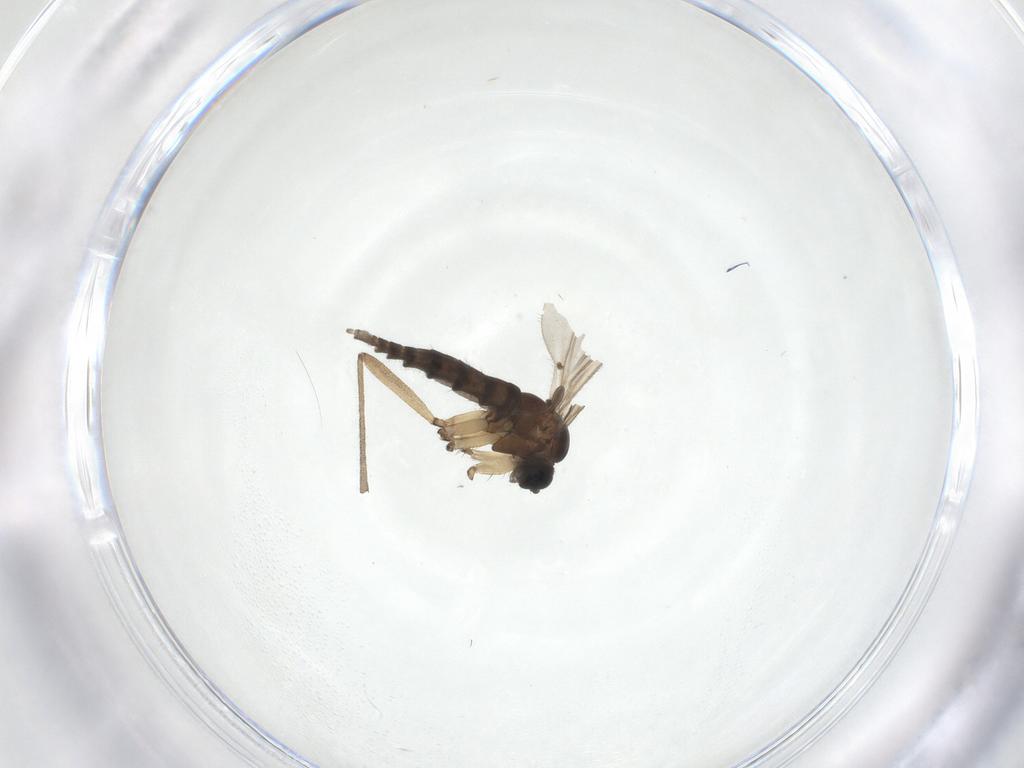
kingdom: Animalia
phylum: Arthropoda
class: Insecta
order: Diptera
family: Sciaridae
